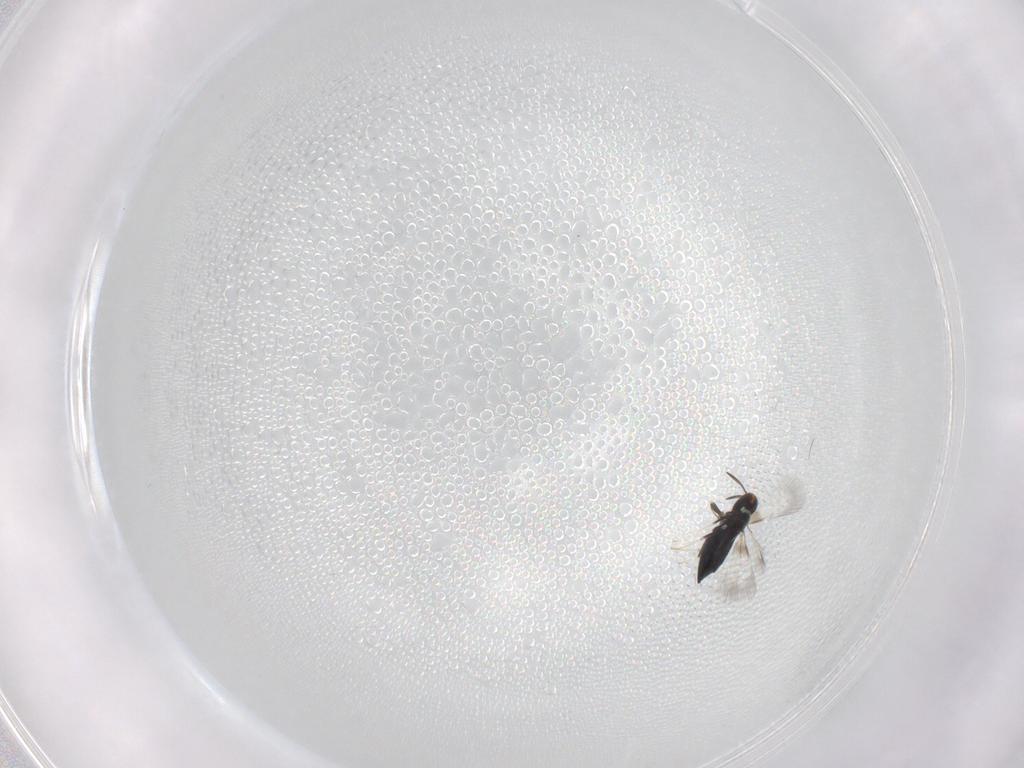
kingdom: Animalia
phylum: Arthropoda
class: Insecta
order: Hymenoptera
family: Signiphoridae
